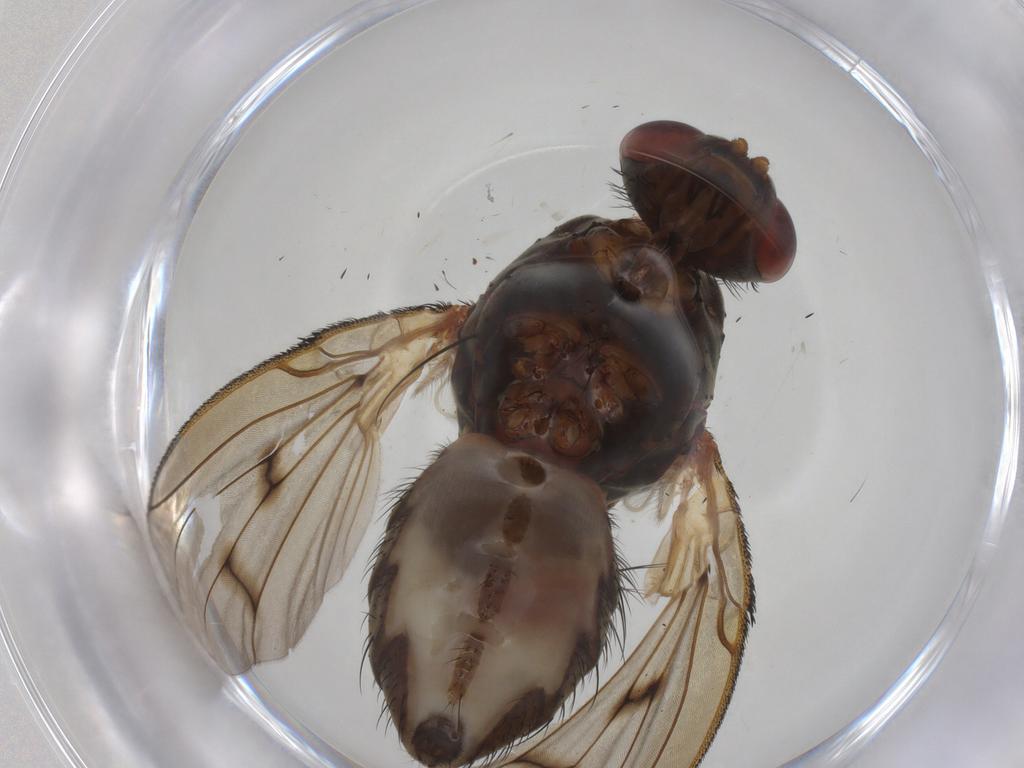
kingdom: Animalia
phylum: Arthropoda
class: Insecta
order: Diptera
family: Anthomyiidae
